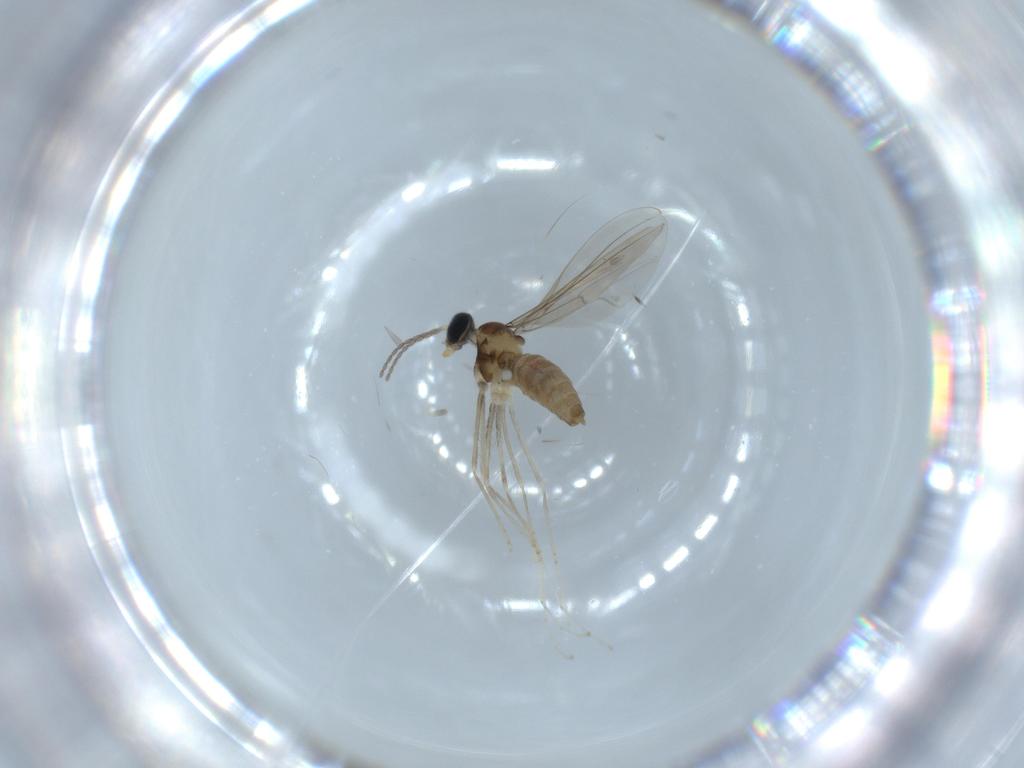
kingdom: Animalia
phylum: Arthropoda
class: Insecta
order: Diptera
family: Cecidomyiidae
